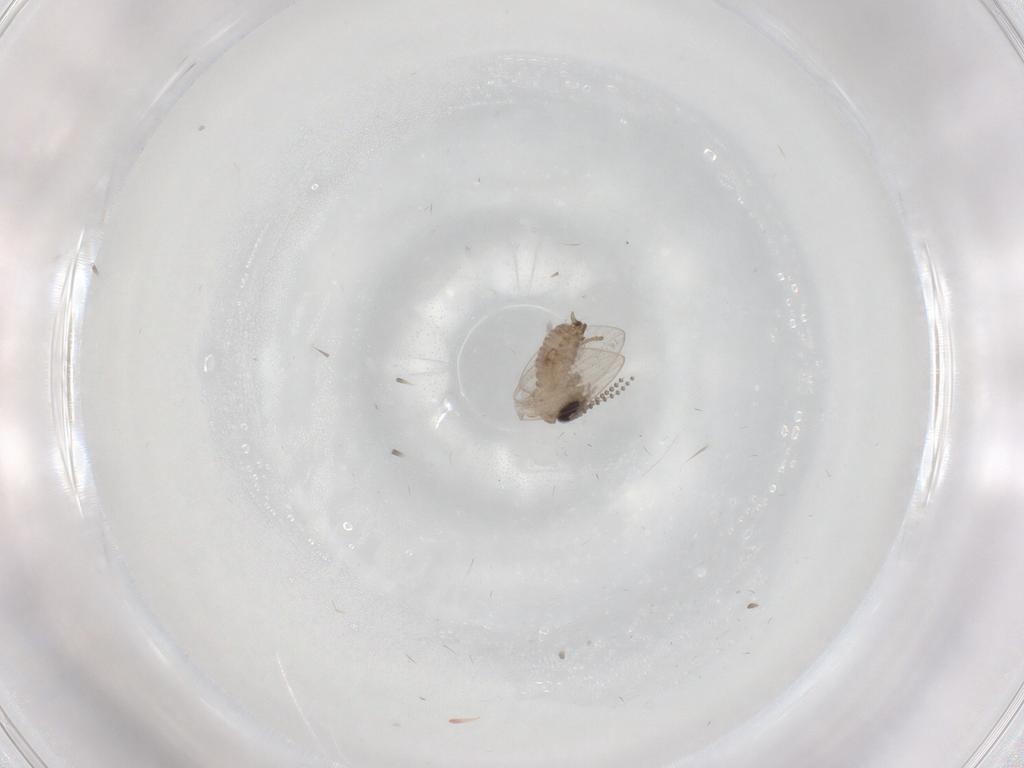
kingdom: Animalia
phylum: Arthropoda
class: Insecta
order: Diptera
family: Psychodidae
